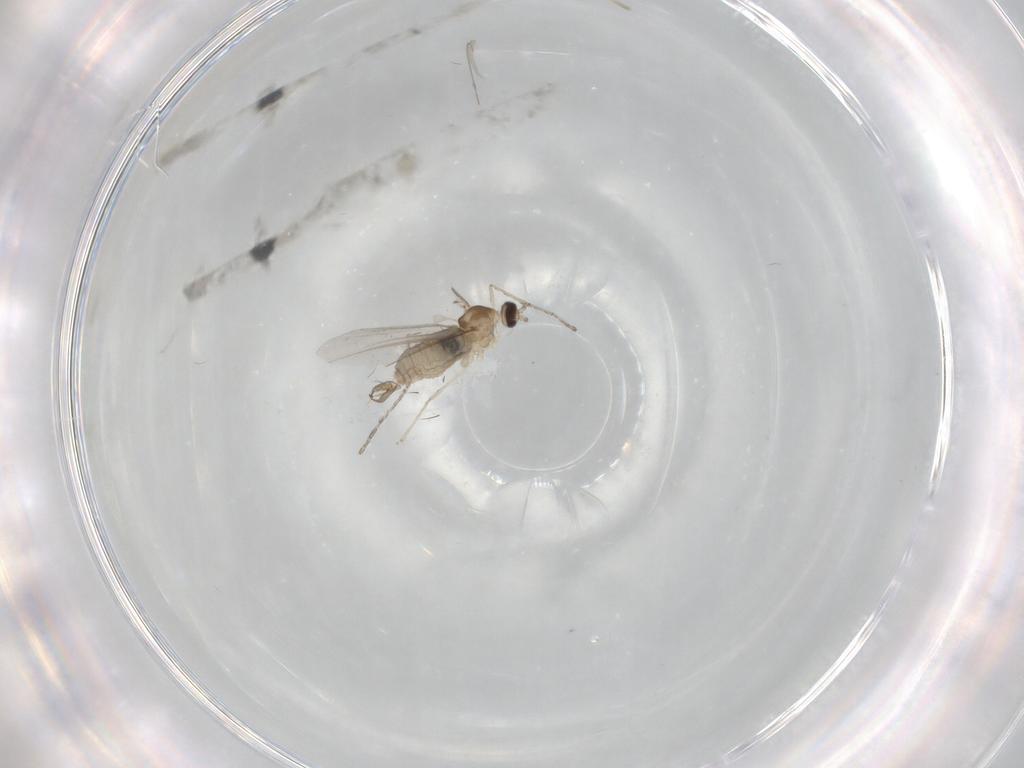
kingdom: Animalia
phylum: Arthropoda
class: Insecta
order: Diptera
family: Cecidomyiidae
